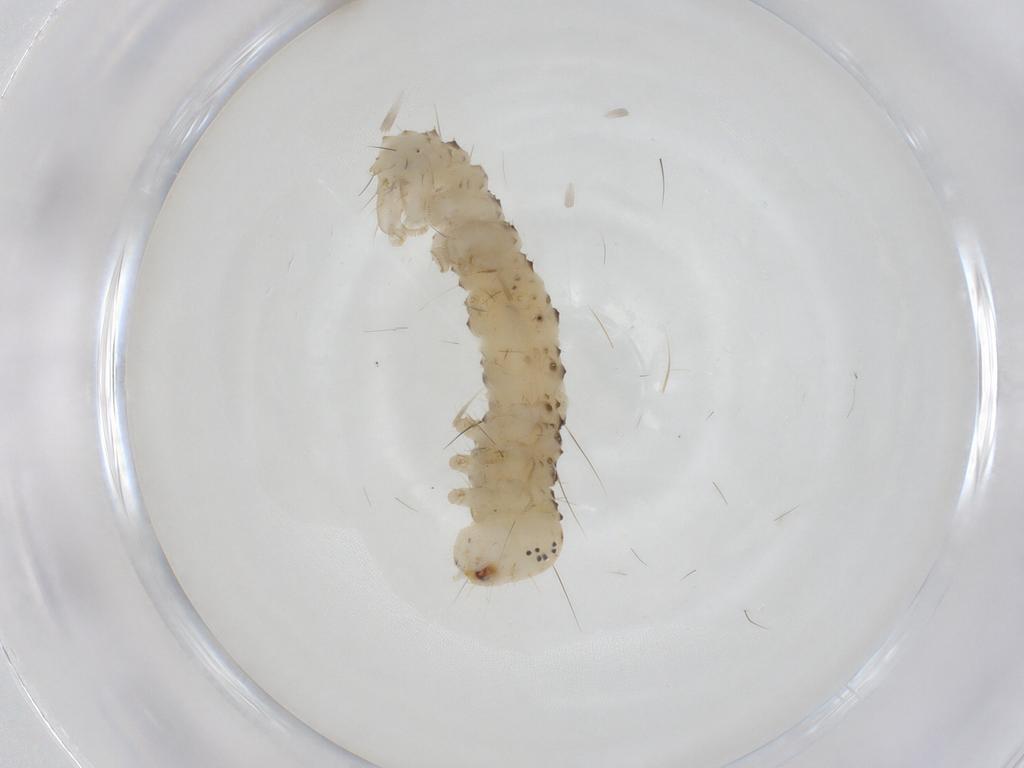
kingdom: Animalia
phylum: Arthropoda
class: Insecta
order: Lepidoptera
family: Erebidae
